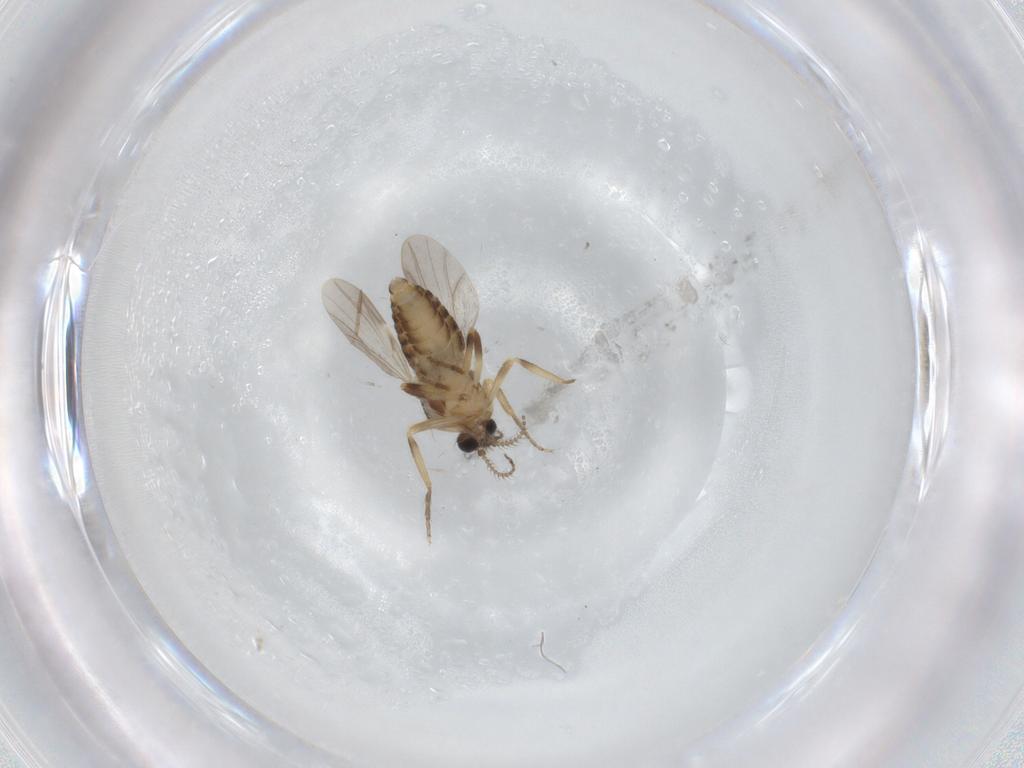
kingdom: Animalia
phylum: Arthropoda
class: Insecta
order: Diptera
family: Ceratopogonidae
